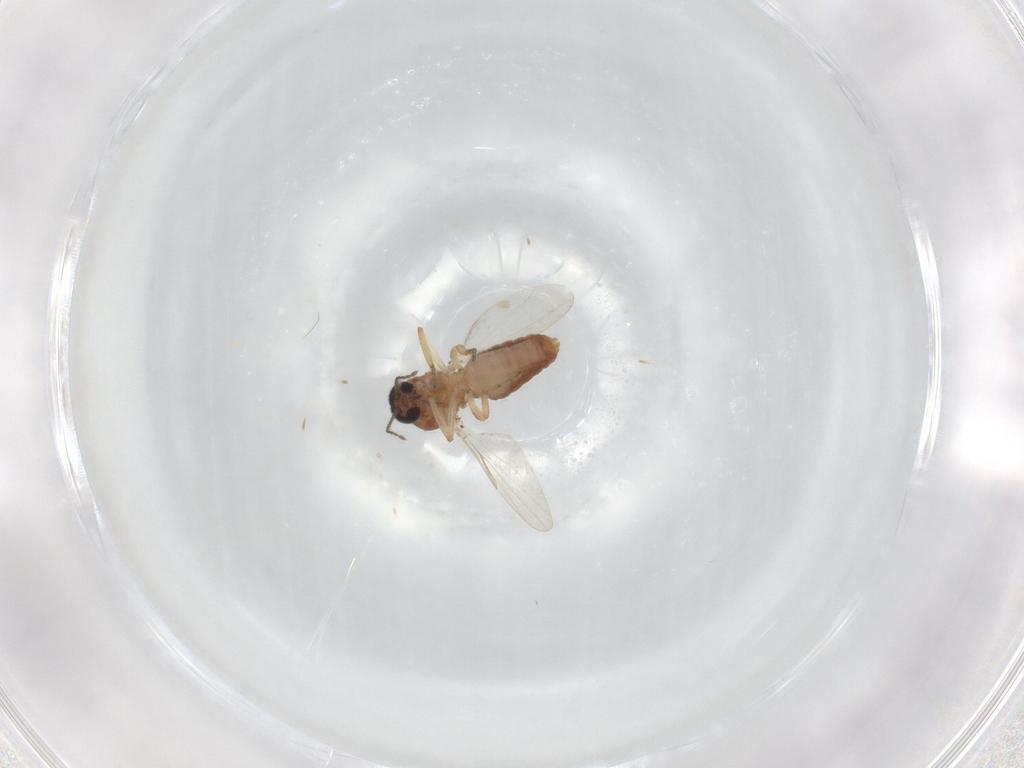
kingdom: Animalia
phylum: Arthropoda
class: Insecta
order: Diptera
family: Ceratopogonidae
